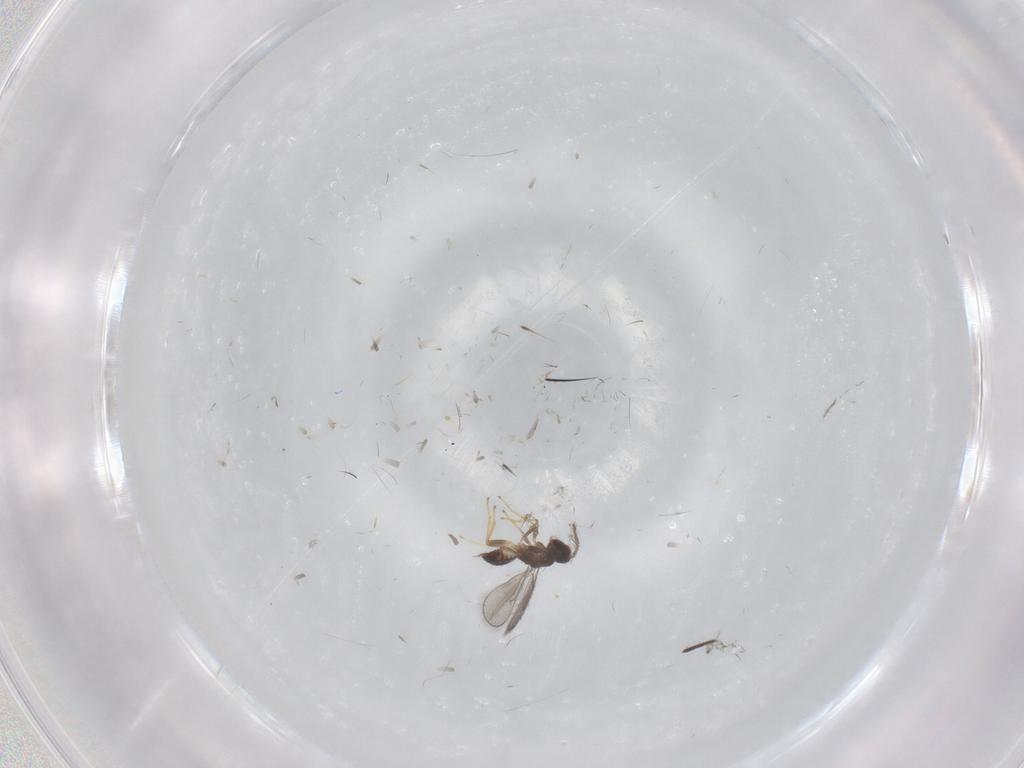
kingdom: Animalia
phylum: Arthropoda
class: Insecta
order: Hymenoptera
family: Eulophidae
